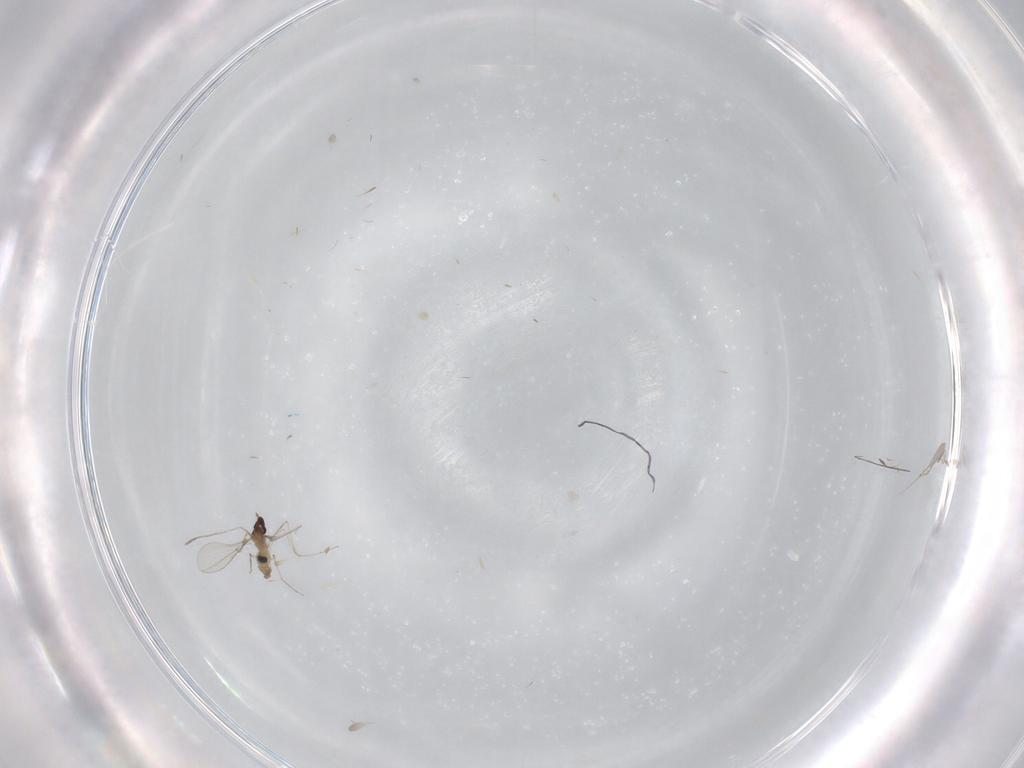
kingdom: Animalia
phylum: Arthropoda
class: Insecta
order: Diptera
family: Cecidomyiidae
